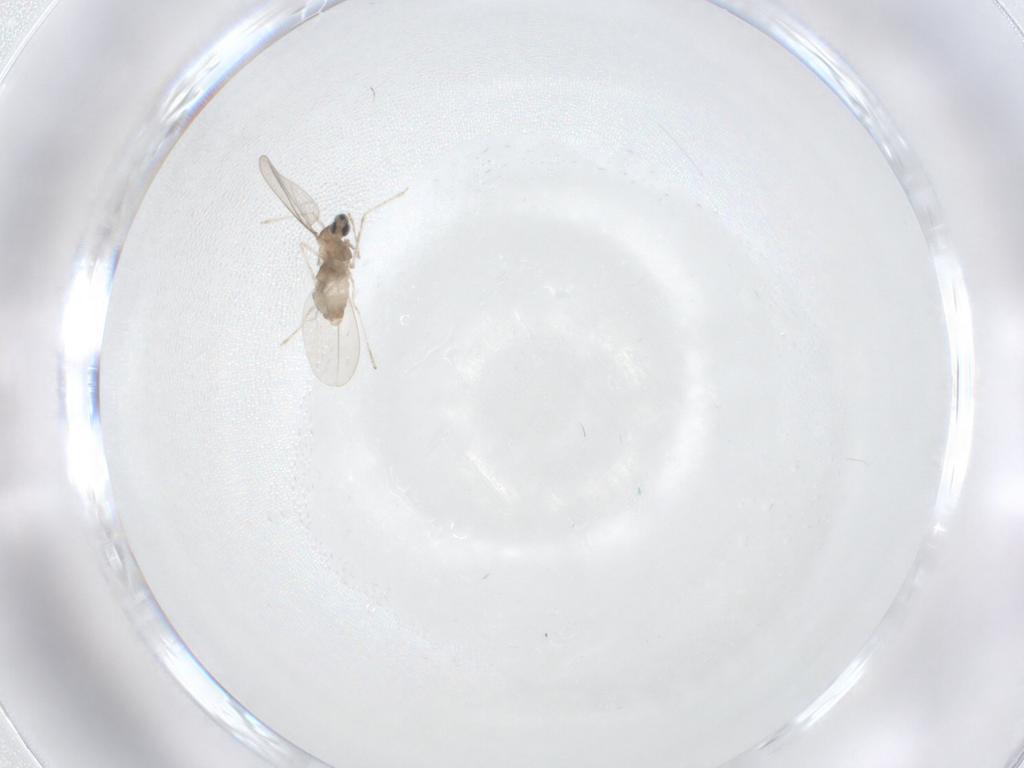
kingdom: Animalia
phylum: Arthropoda
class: Insecta
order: Diptera
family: Cecidomyiidae
